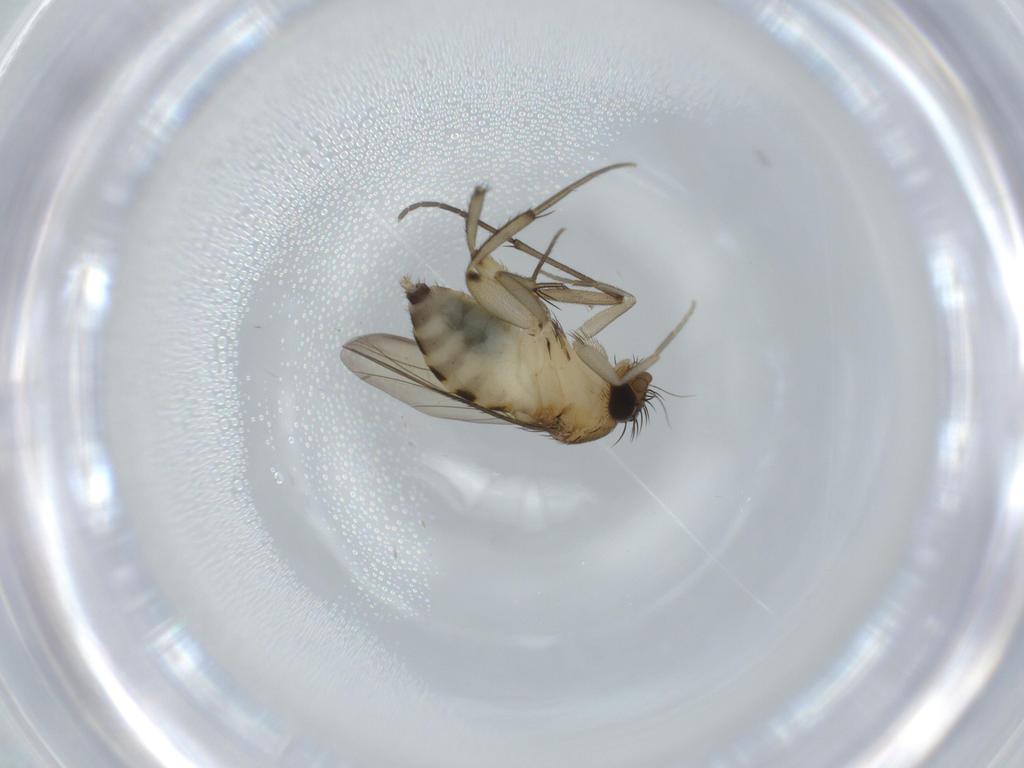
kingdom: Animalia
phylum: Arthropoda
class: Insecta
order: Diptera
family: Phoridae
